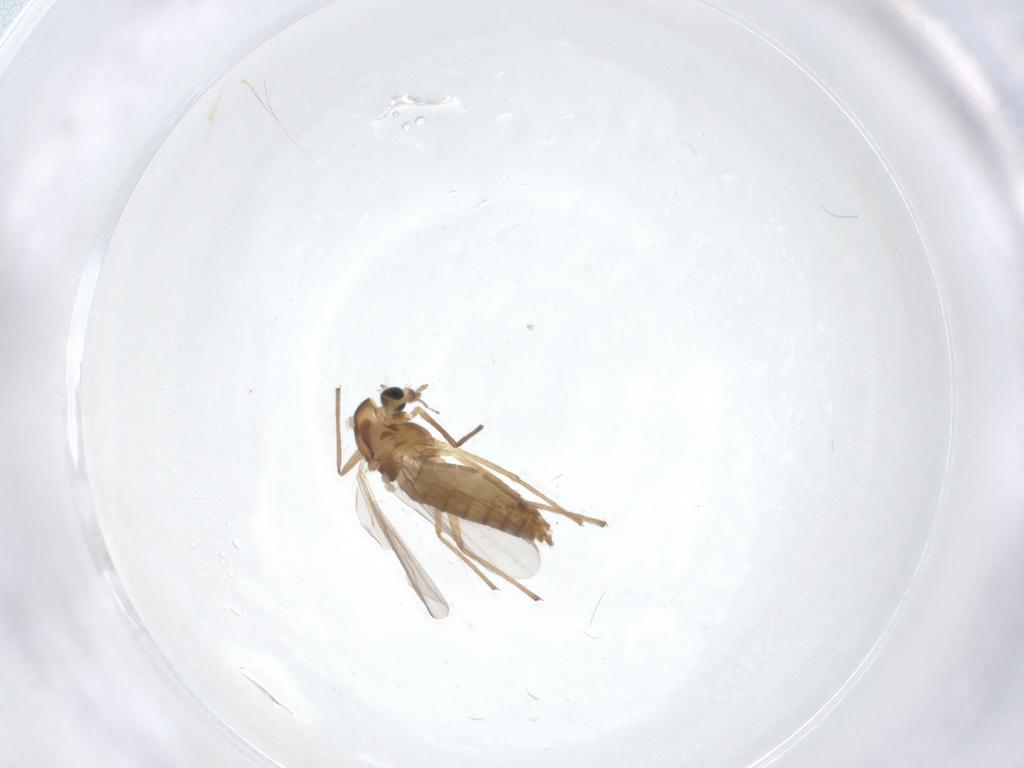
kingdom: Animalia
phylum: Arthropoda
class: Insecta
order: Diptera
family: Chironomidae
